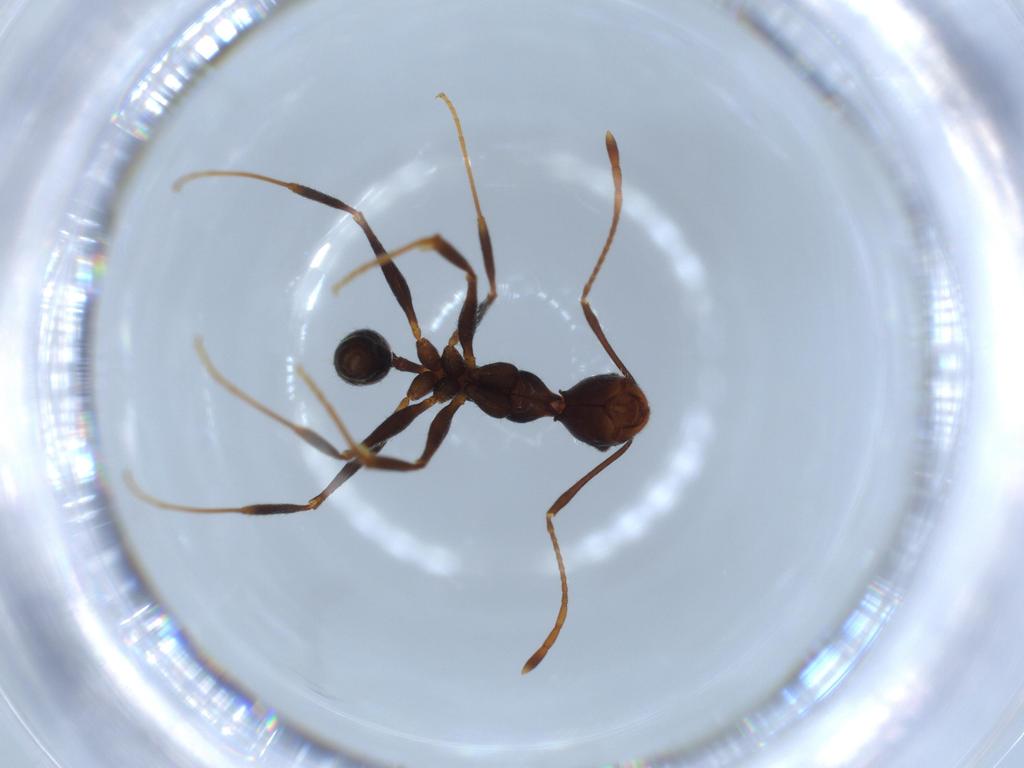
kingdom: Animalia
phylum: Arthropoda
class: Insecta
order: Hymenoptera
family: Formicidae
